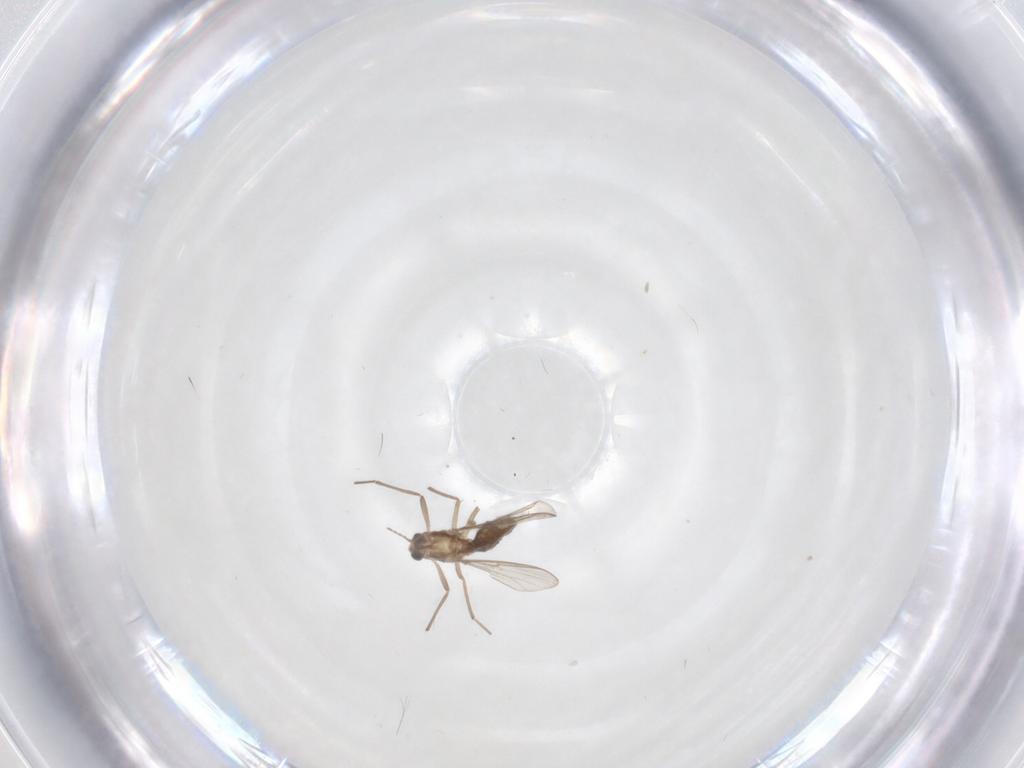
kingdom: Animalia
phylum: Arthropoda
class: Insecta
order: Diptera
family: Chironomidae
